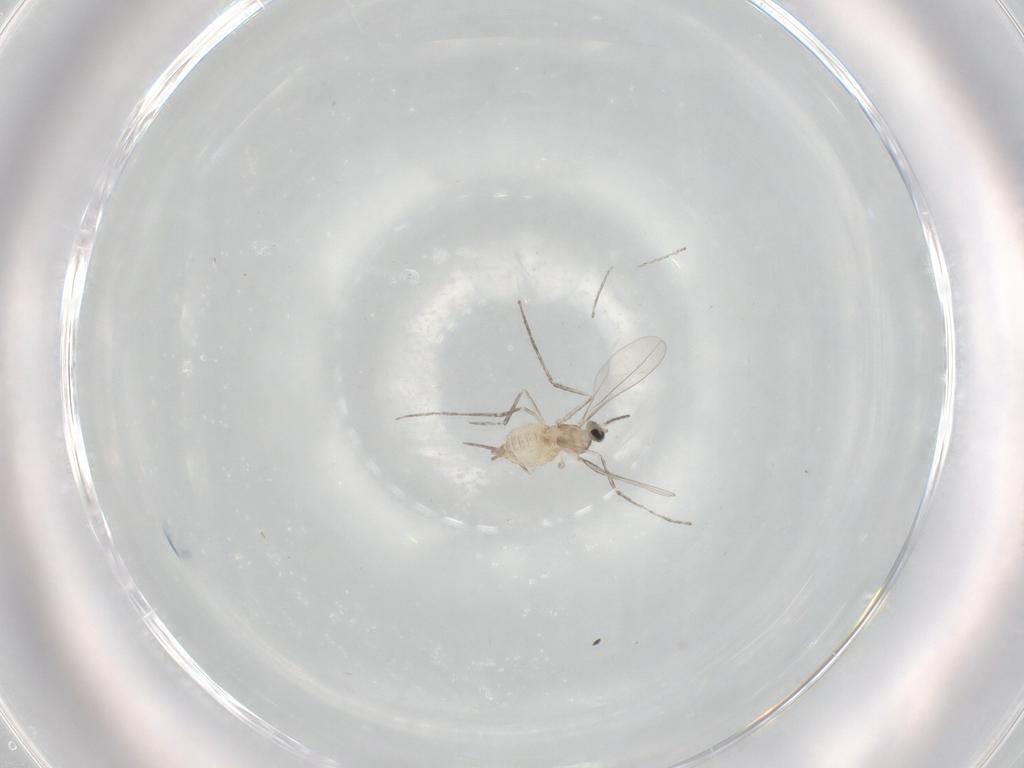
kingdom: Animalia
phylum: Arthropoda
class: Insecta
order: Diptera
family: Cecidomyiidae
